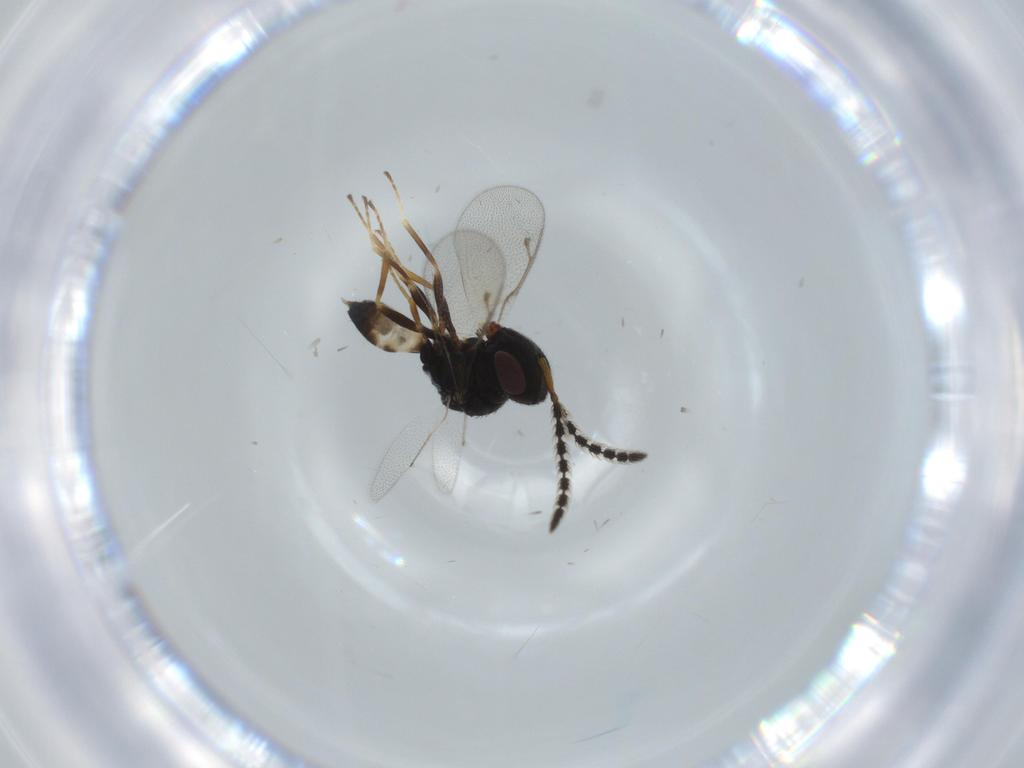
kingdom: Animalia
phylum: Arthropoda
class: Insecta
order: Hymenoptera
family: Pteromalidae
